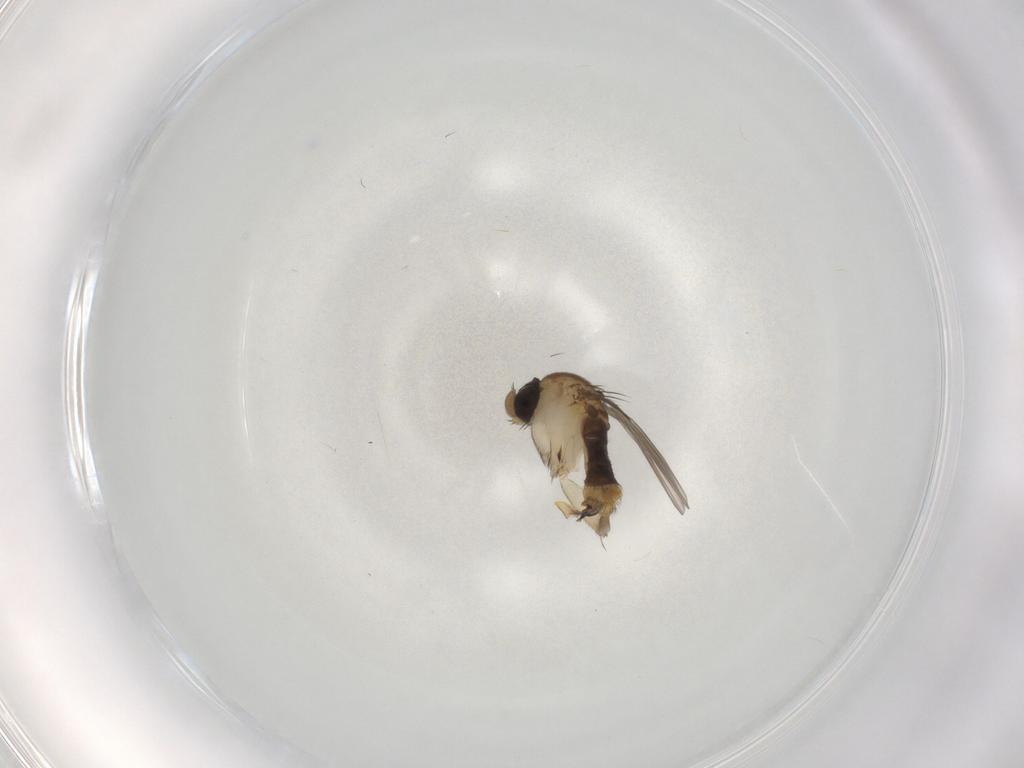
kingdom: Animalia
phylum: Arthropoda
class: Insecta
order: Diptera
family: Phoridae
